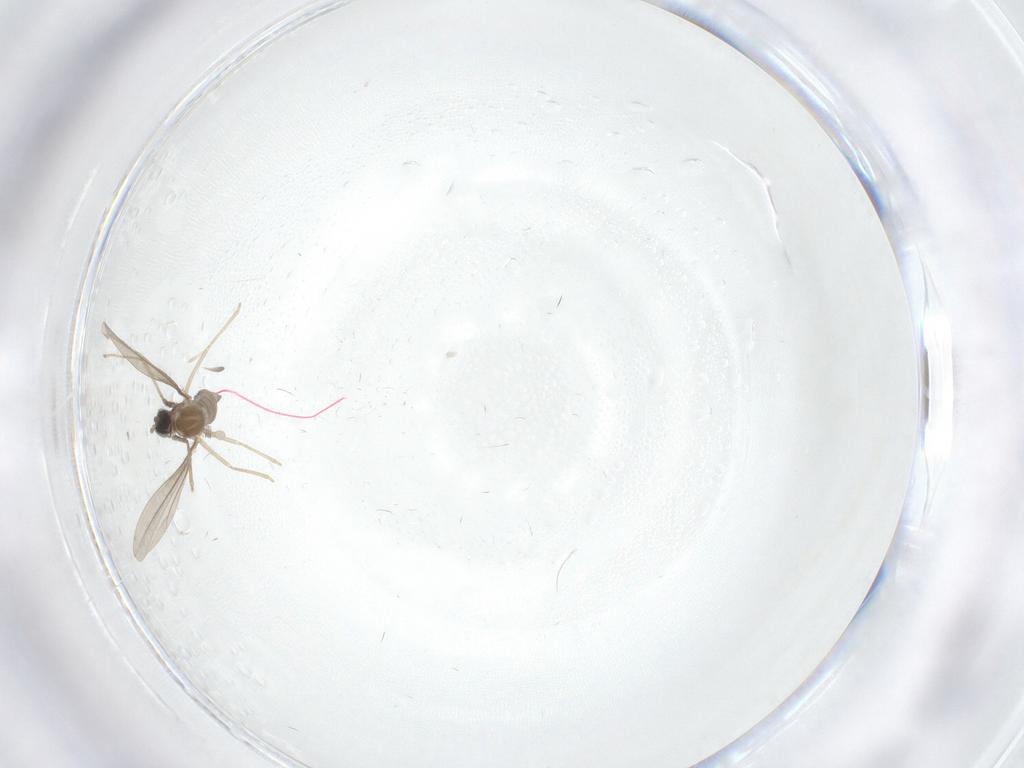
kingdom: Animalia
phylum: Arthropoda
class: Insecta
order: Diptera
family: Cecidomyiidae
